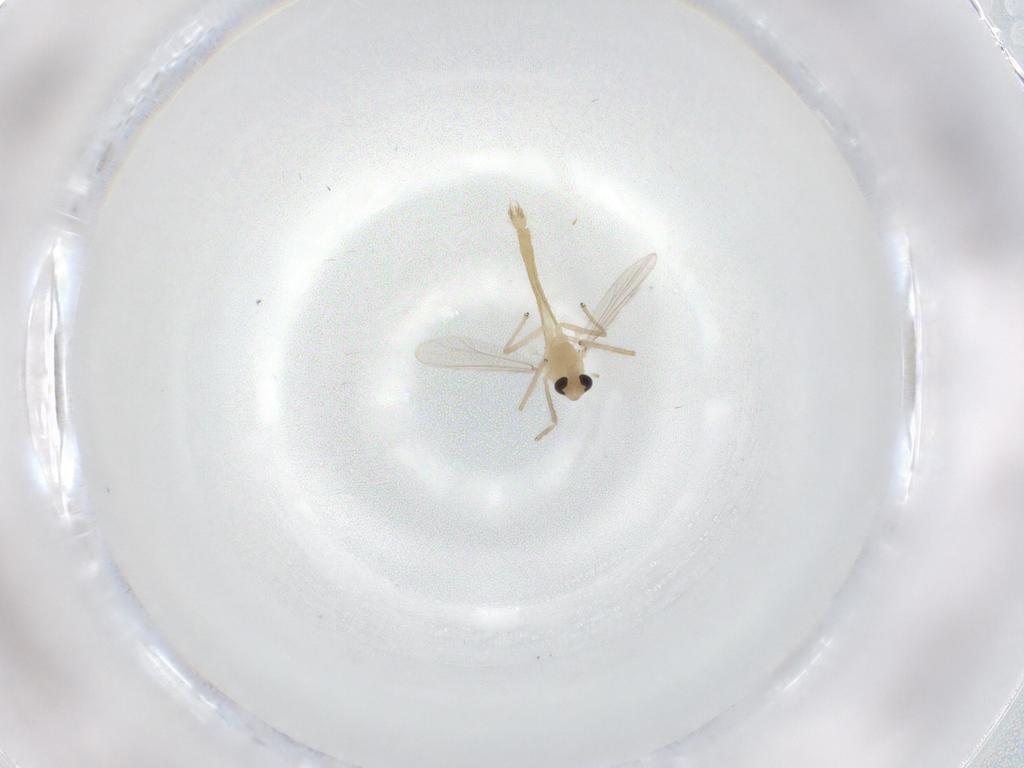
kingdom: Animalia
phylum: Arthropoda
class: Insecta
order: Diptera
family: Chironomidae
